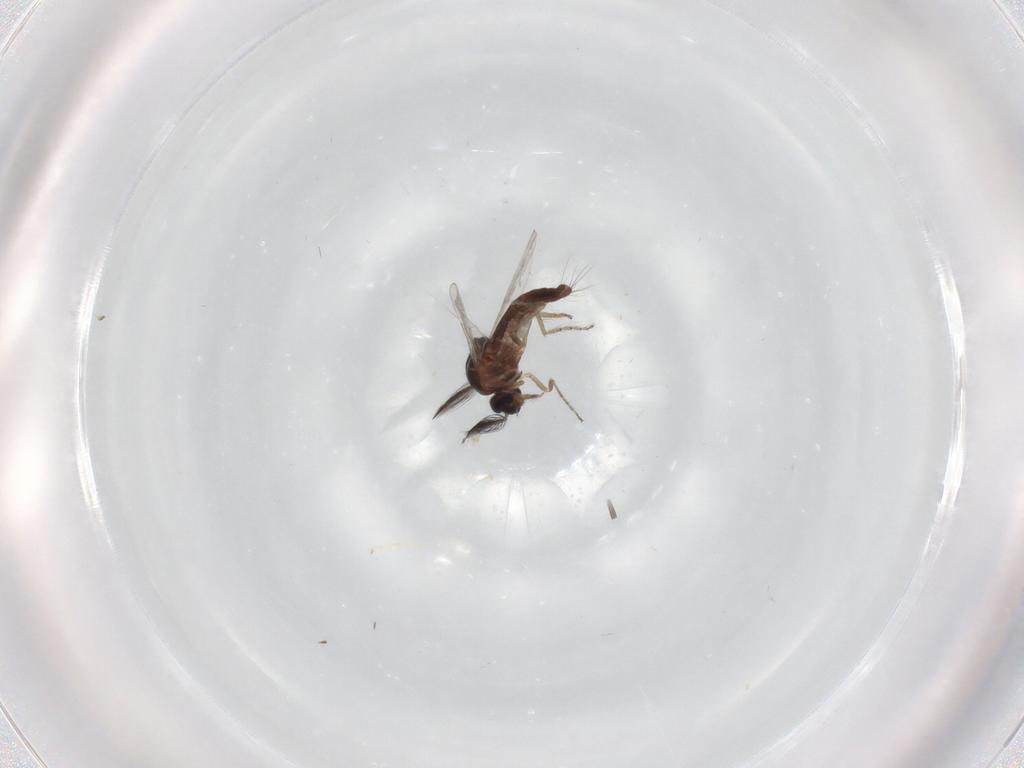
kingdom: Animalia
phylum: Arthropoda
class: Insecta
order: Diptera
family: Ceratopogonidae
